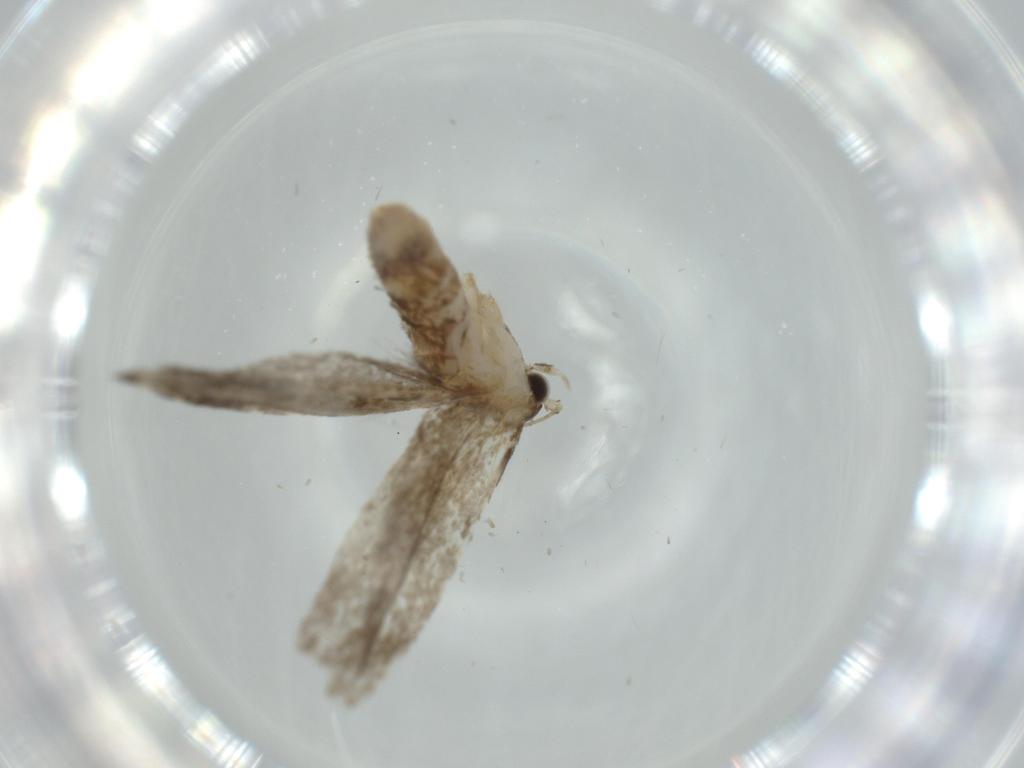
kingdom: Animalia
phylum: Arthropoda
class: Insecta
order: Lepidoptera
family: Tineidae
